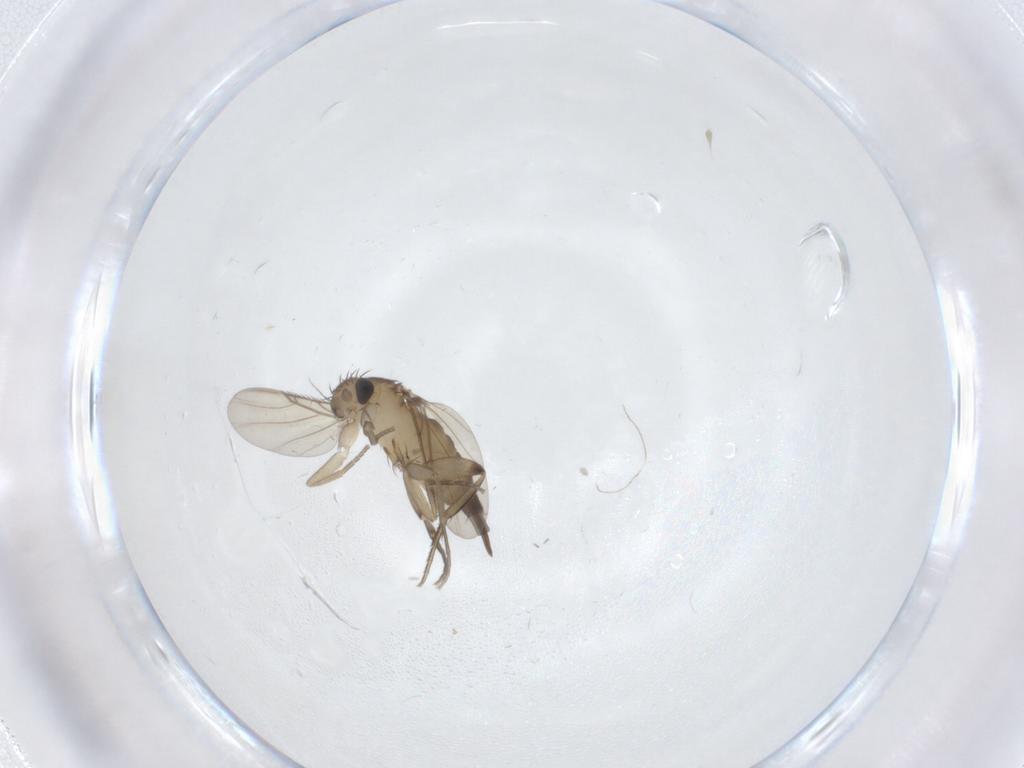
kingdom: Animalia
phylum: Arthropoda
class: Insecta
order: Diptera
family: Phoridae
